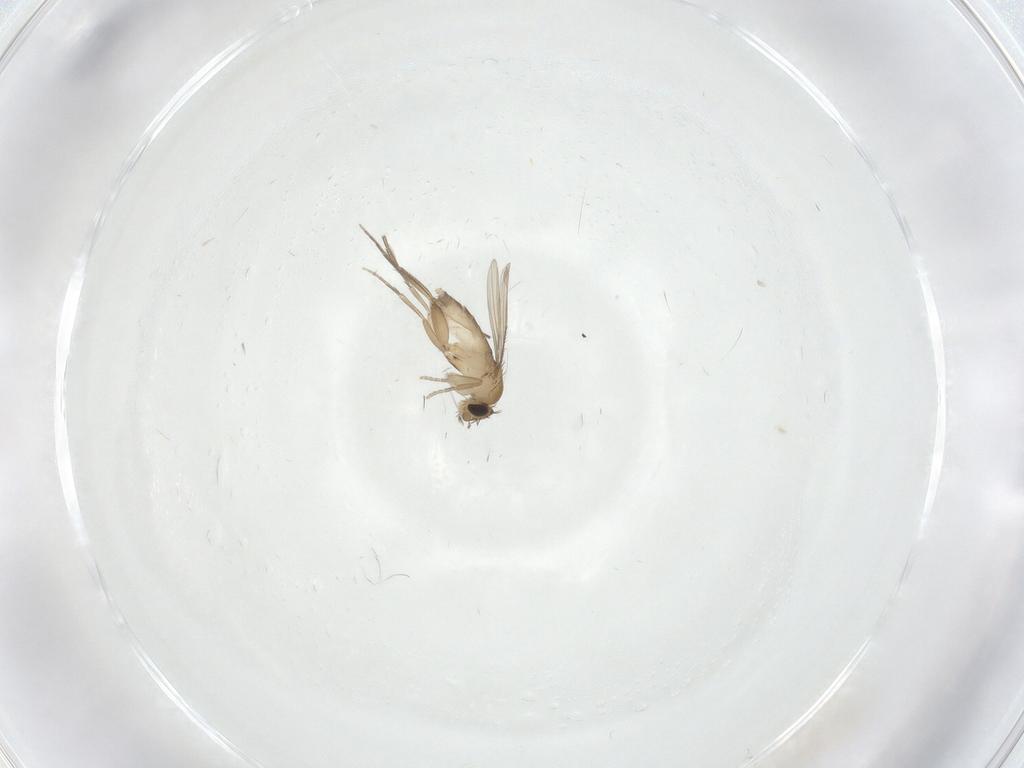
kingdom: Animalia
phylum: Arthropoda
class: Insecta
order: Diptera
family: Limoniidae
